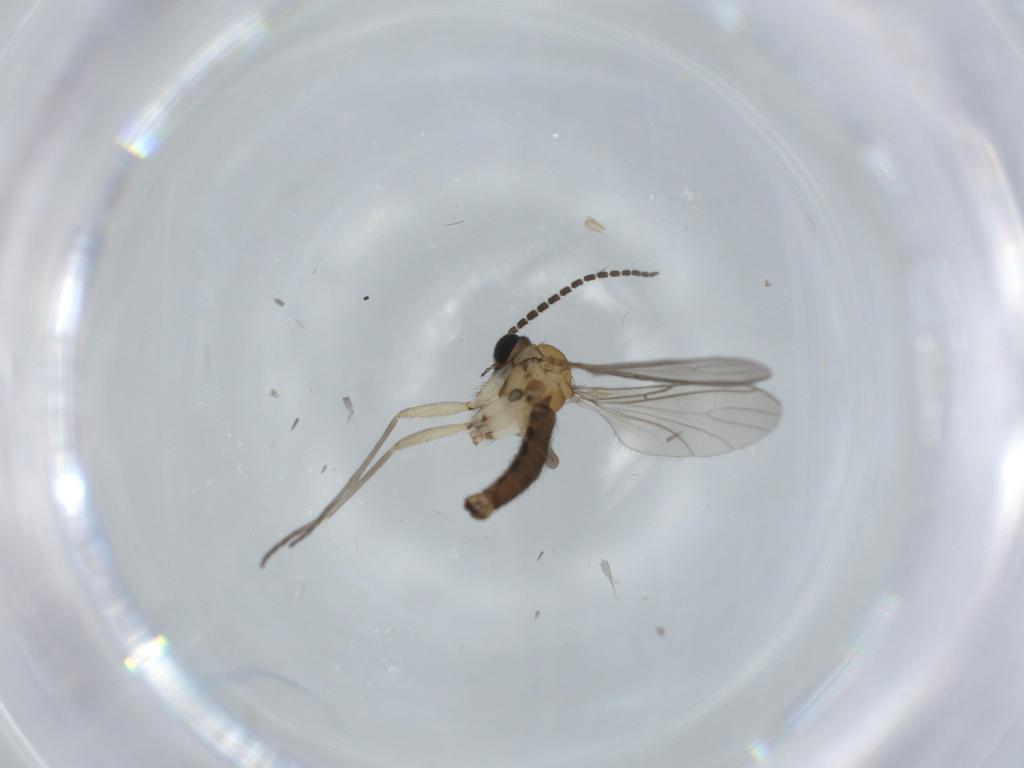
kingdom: Animalia
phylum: Arthropoda
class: Insecta
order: Diptera
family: Sciaridae
